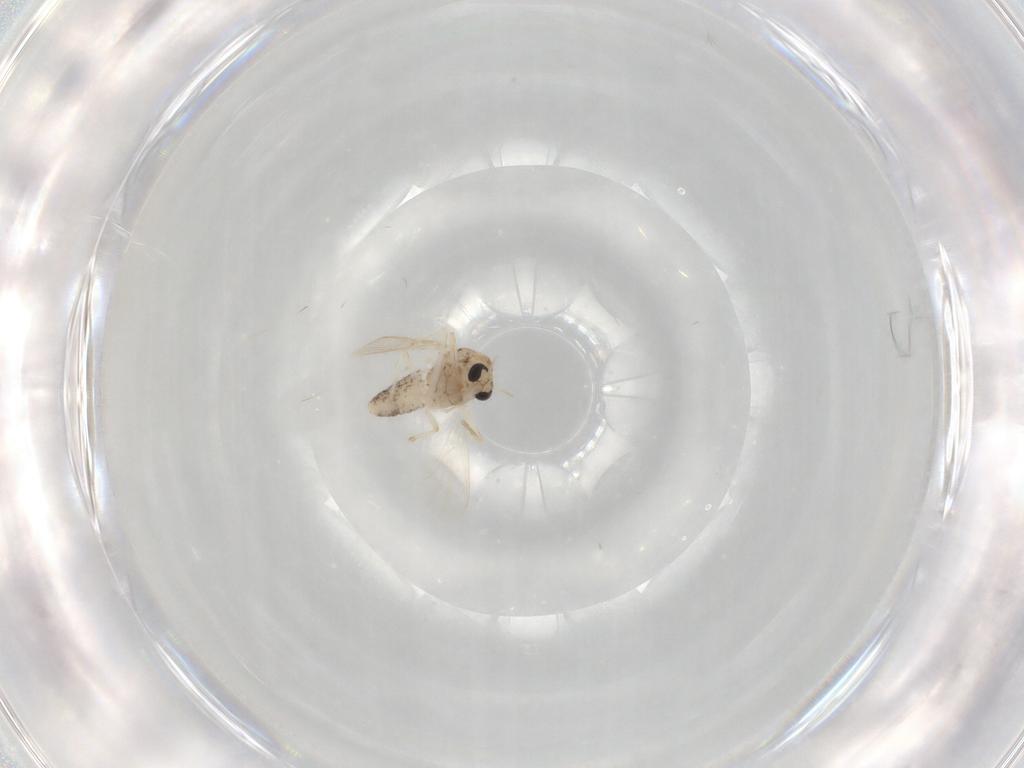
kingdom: Animalia
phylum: Arthropoda
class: Insecta
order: Diptera
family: Chironomidae
